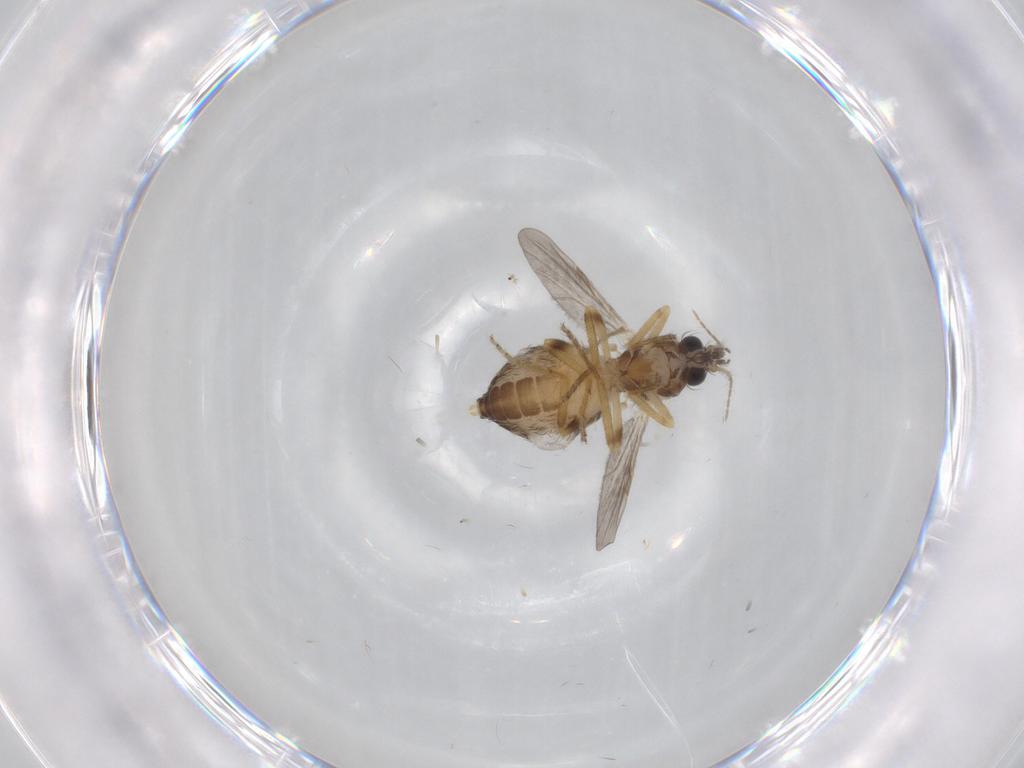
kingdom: Animalia
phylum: Arthropoda
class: Insecta
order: Diptera
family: Ceratopogonidae
